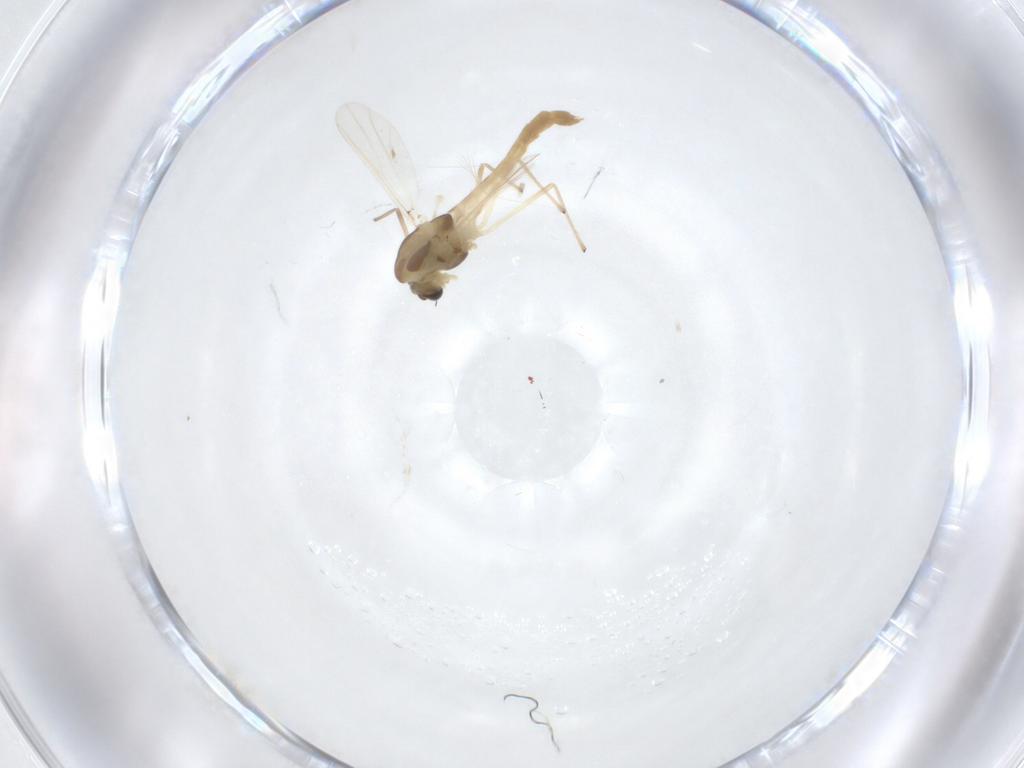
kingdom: Animalia
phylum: Arthropoda
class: Insecta
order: Diptera
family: Chironomidae
